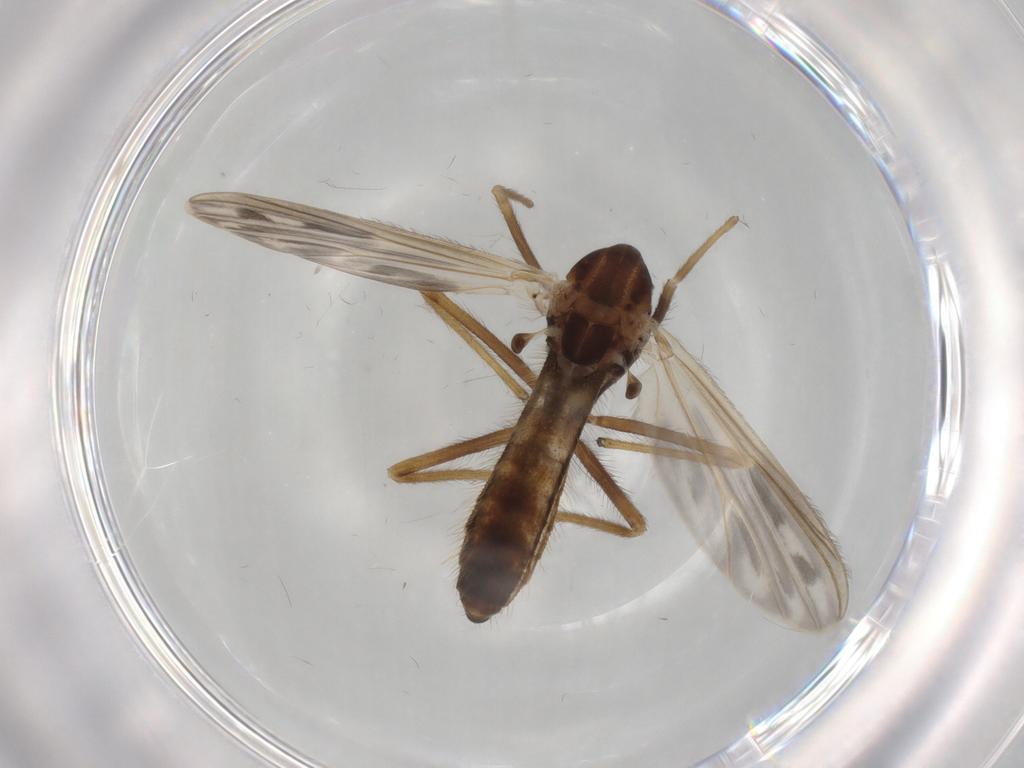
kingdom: Animalia
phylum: Arthropoda
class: Insecta
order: Diptera
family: Chironomidae
